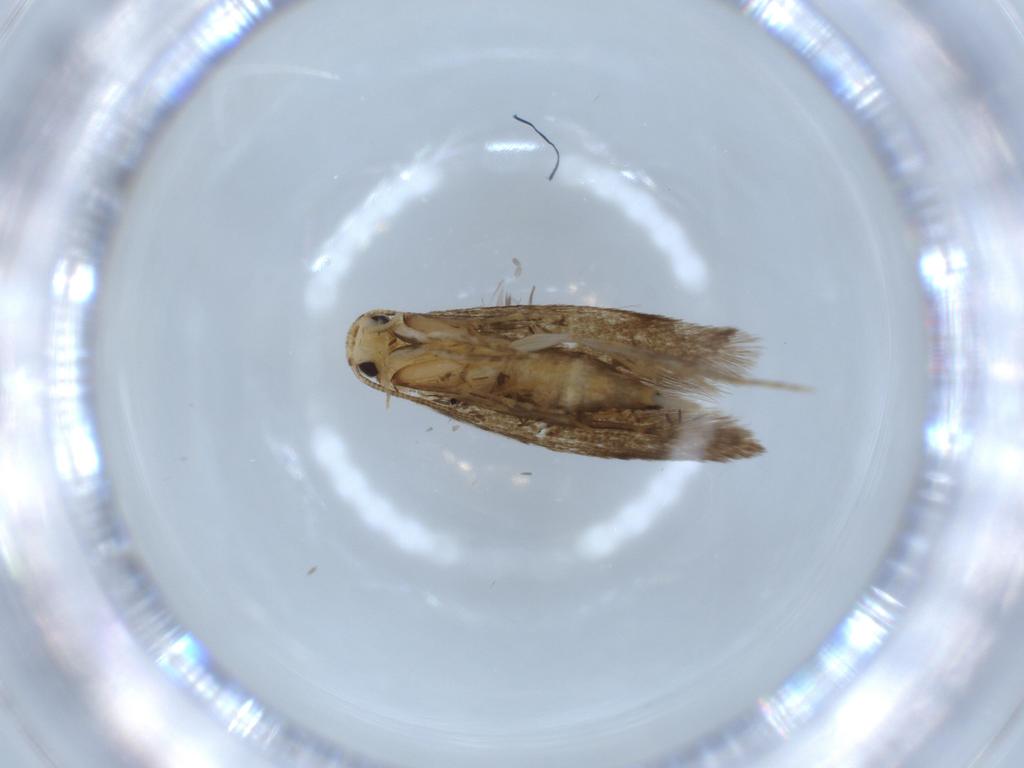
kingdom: Animalia
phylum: Arthropoda
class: Insecta
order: Lepidoptera
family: Tineidae
